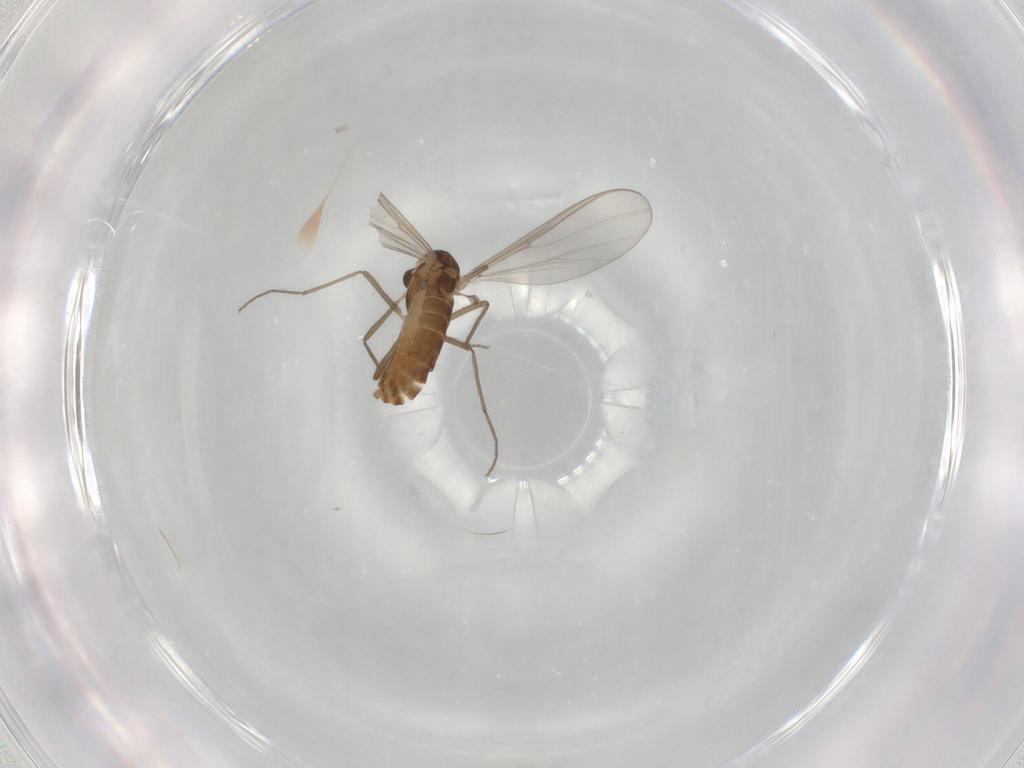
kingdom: Animalia
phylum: Arthropoda
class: Insecta
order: Diptera
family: Chironomidae
